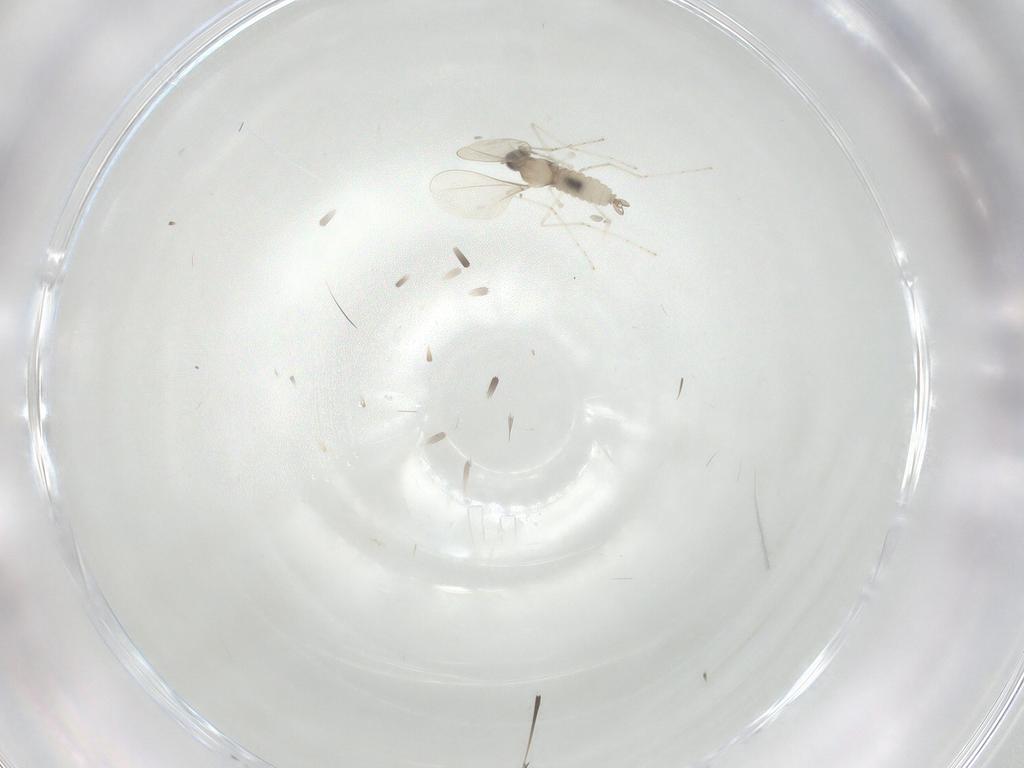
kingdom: Animalia
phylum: Arthropoda
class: Insecta
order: Diptera
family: Cecidomyiidae
